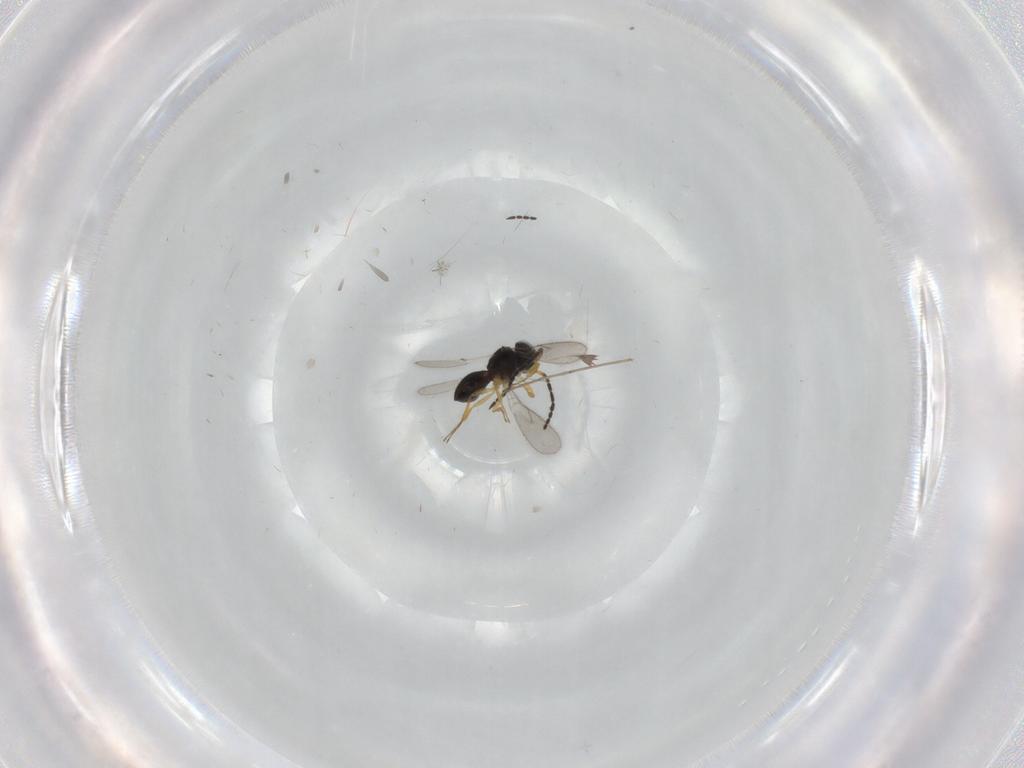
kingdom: Animalia
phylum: Arthropoda
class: Insecta
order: Hymenoptera
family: Scelionidae
